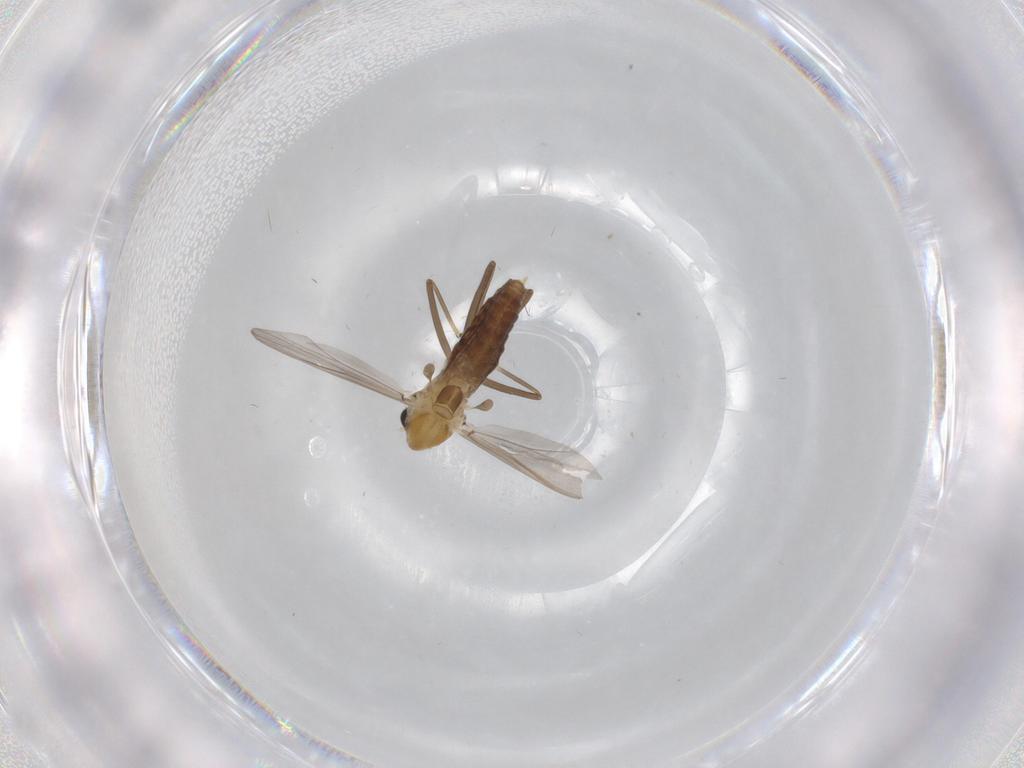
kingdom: Animalia
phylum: Arthropoda
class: Insecta
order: Diptera
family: Chironomidae
